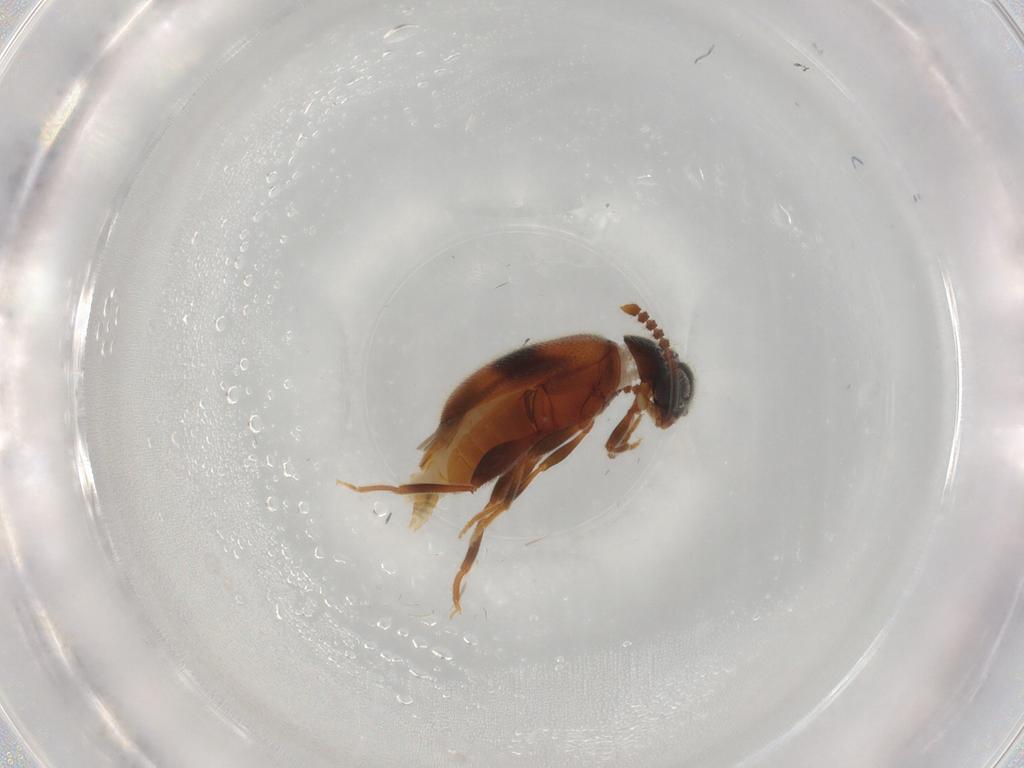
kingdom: Animalia
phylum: Arthropoda
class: Insecta
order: Coleoptera
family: Aderidae
